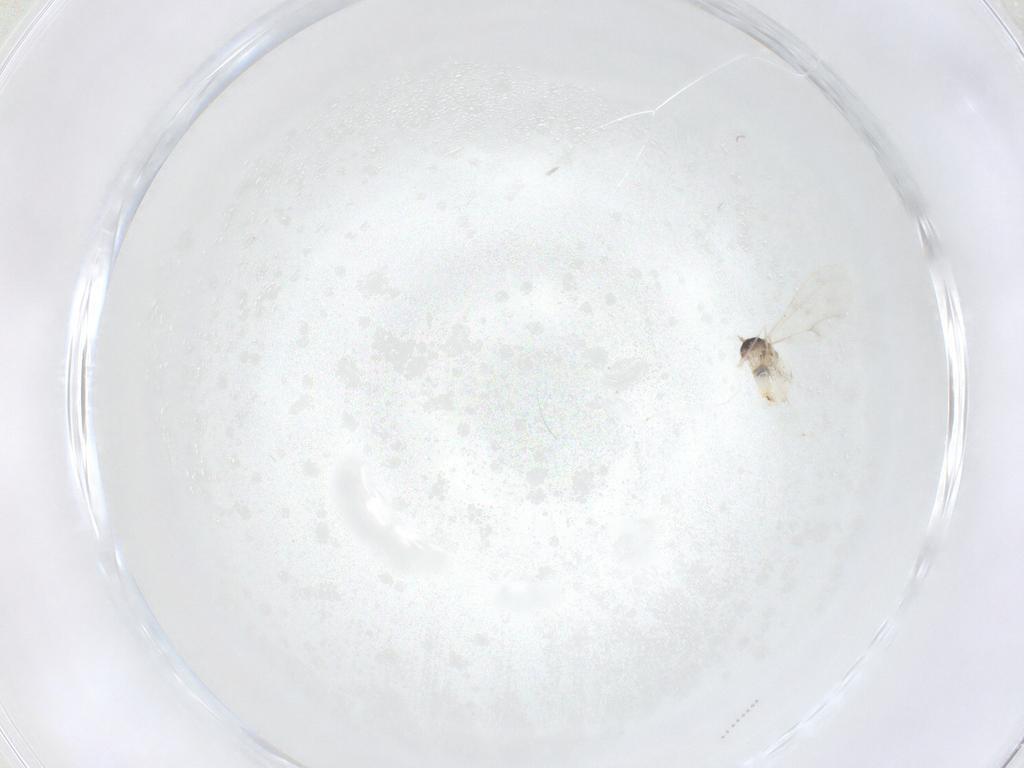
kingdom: Animalia
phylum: Arthropoda
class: Insecta
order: Diptera
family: Cecidomyiidae
